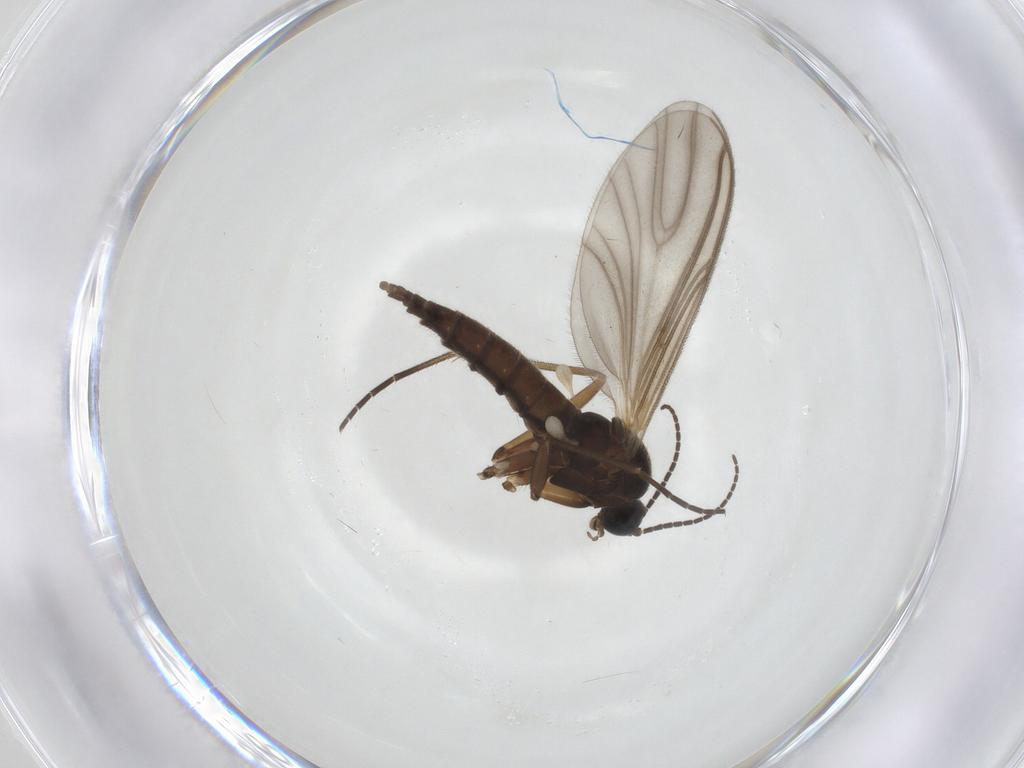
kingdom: Animalia
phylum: Arthropoda
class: Insecta
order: Diptera
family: Sciaridae
